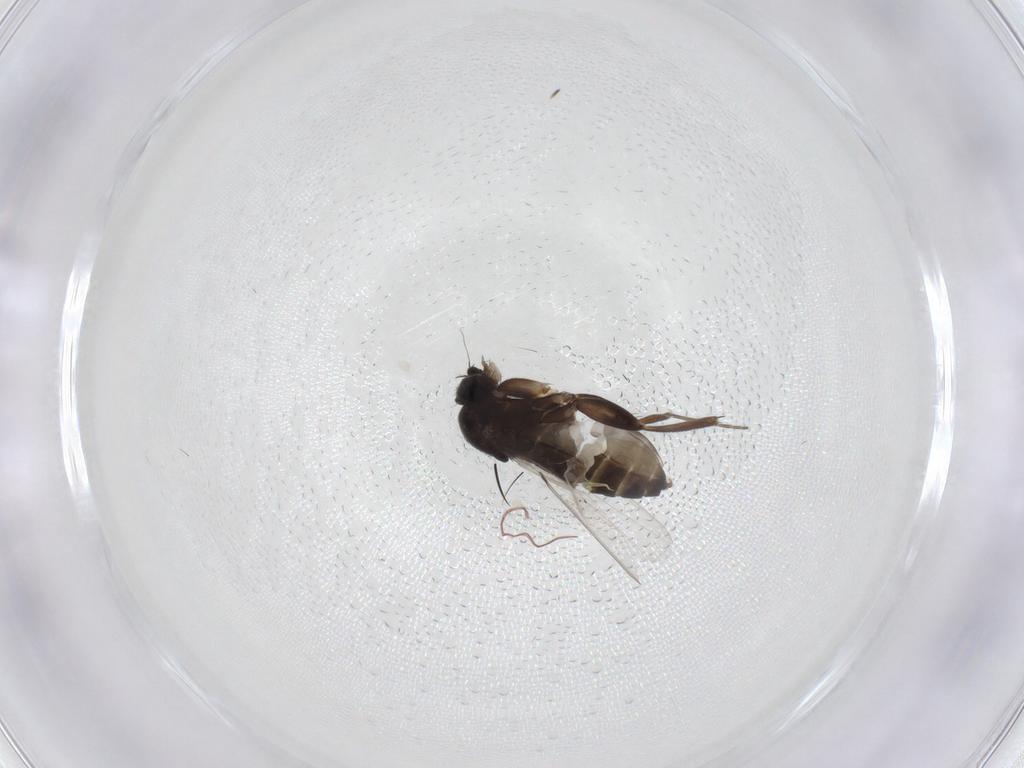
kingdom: Animalia
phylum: Arthropoda
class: Insecta
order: Diptera
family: Phoridae
